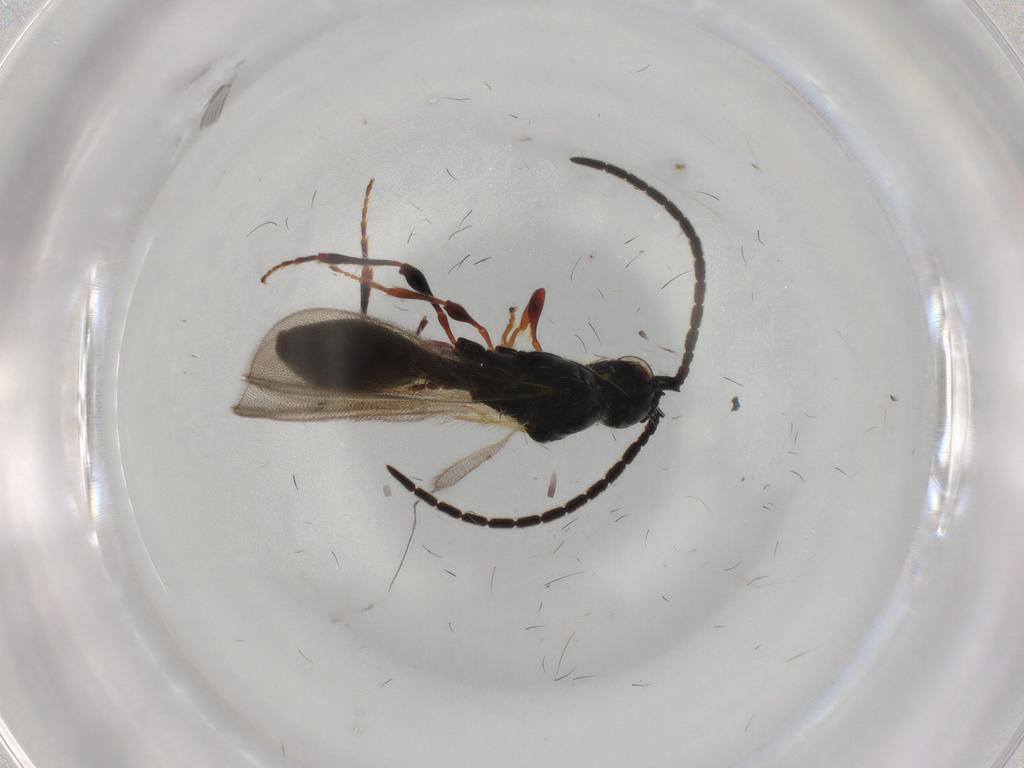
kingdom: Animalia
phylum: Arthropoda
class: Insecta
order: Hymenoptera
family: Diapriidae
